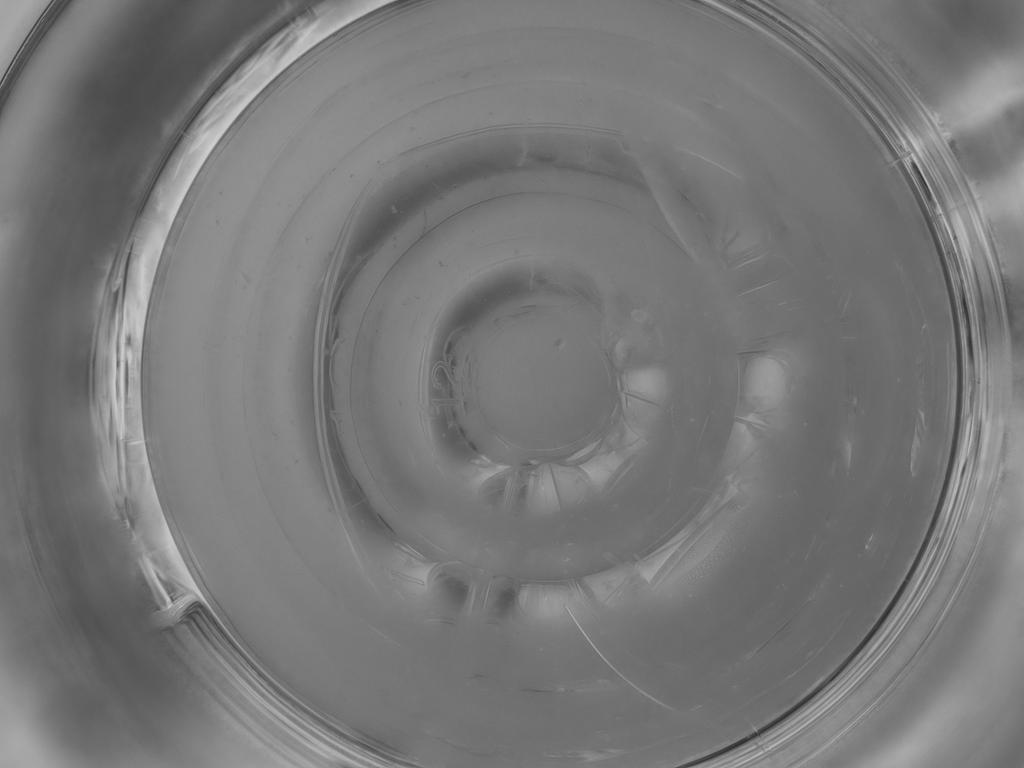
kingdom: Animalia
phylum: Arthropoda
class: Insecta
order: Diptera
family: Cecidomyiidae
